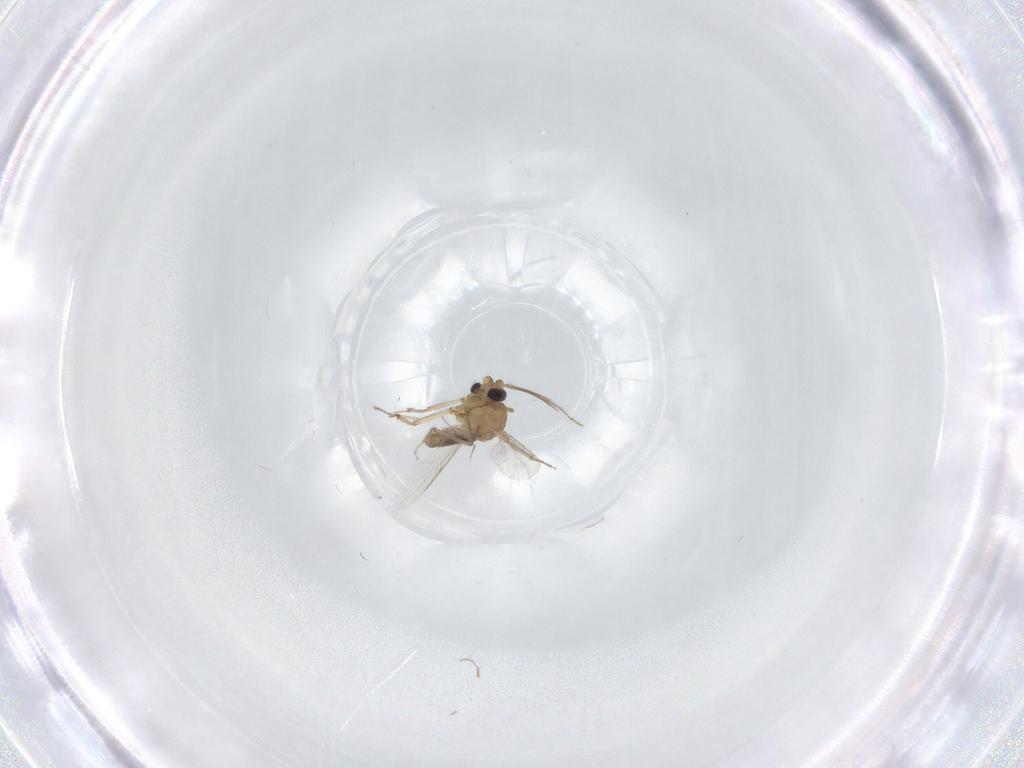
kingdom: Animalia
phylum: Arthropoda
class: Insecta
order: Diptera
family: Ceratopogonidae
